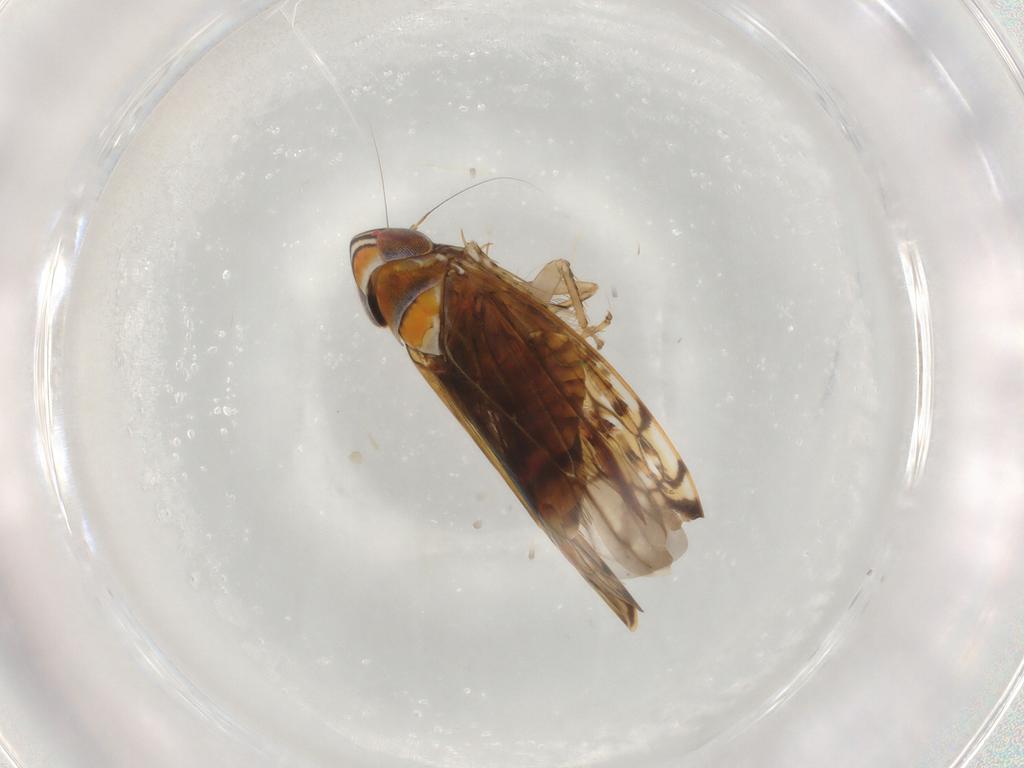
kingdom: Animalia
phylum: Arthropoda
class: Insecta
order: Hemiptera
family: Cicadellidae
